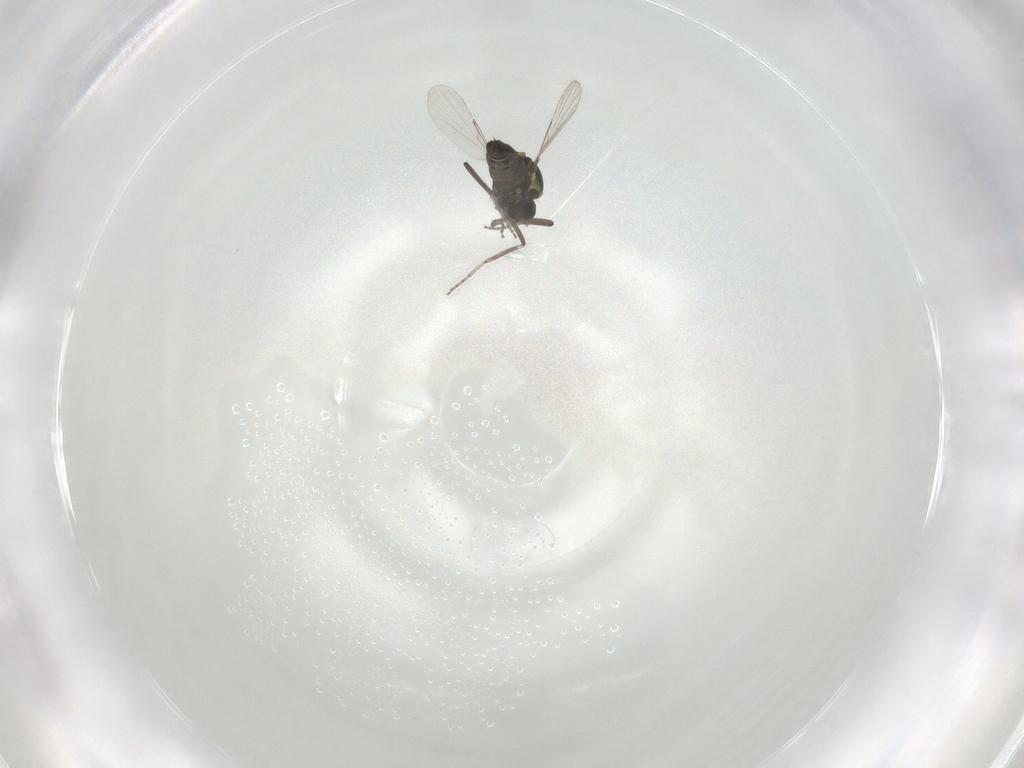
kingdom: Animalia
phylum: Arthropoda
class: Insecta
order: Diptera
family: Ceratopogonidae
